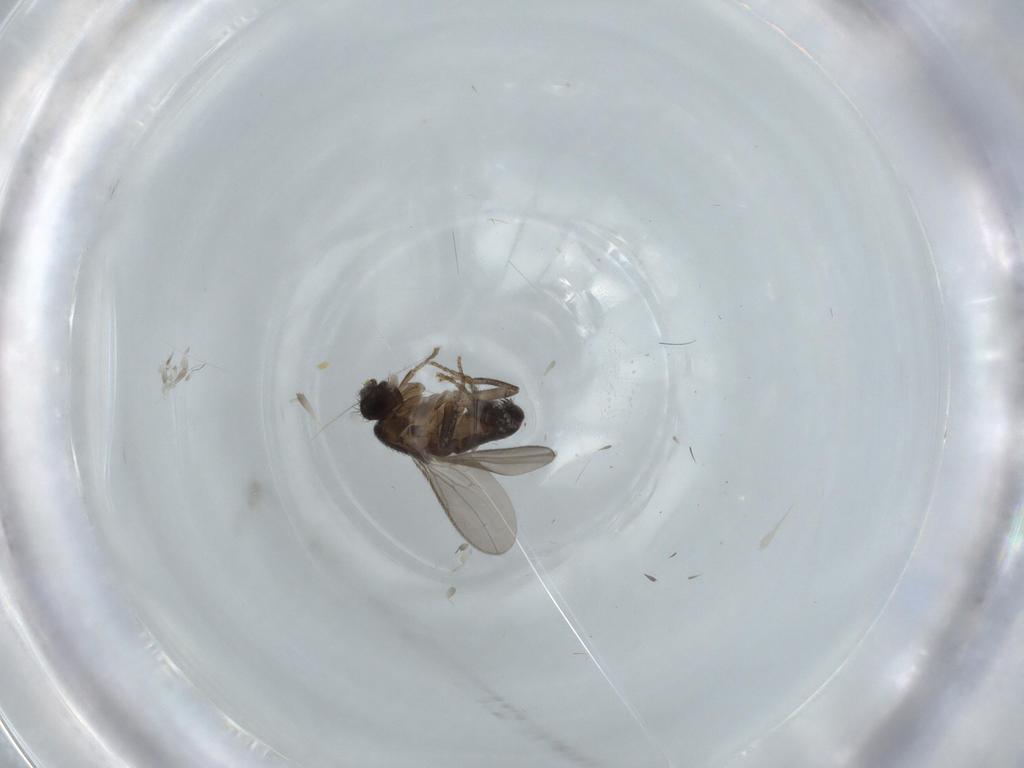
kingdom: Animalia
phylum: Arthropoda
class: Insecta
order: Diptera
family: Sphaeroceridae
